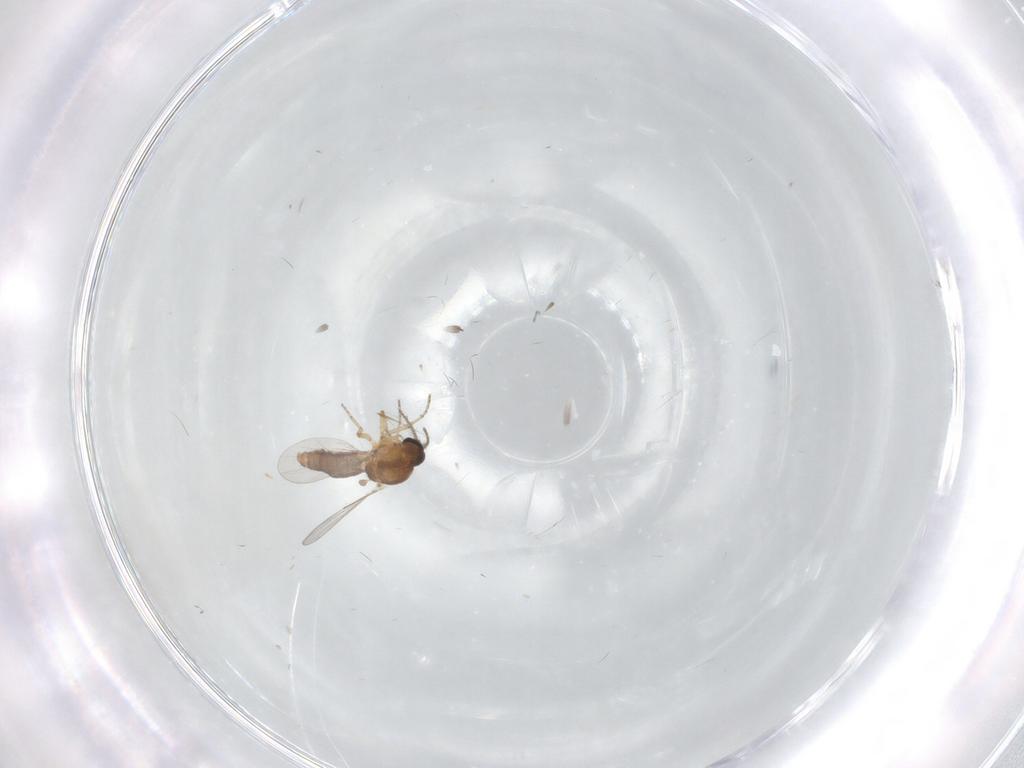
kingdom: Animalia
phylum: Arthropoda
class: Insecta
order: Diptera
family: Ceratopogonidae
